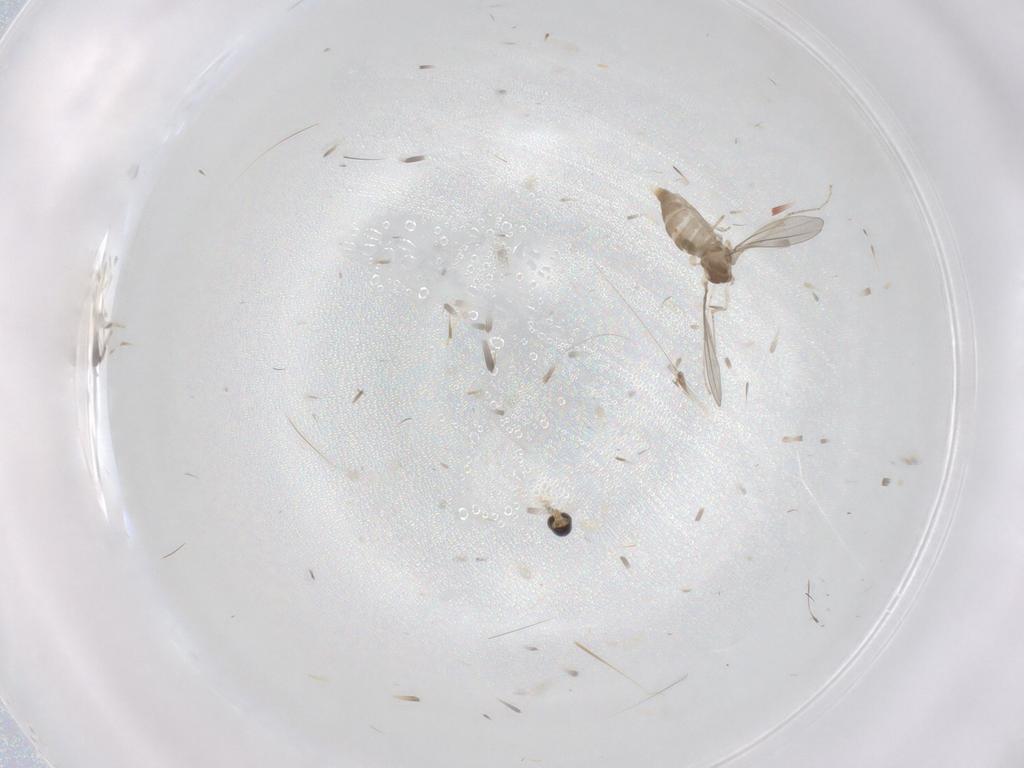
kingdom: Animalia
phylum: Arthropoda
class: Insecta
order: Diptera
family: Cecidomyiidae
